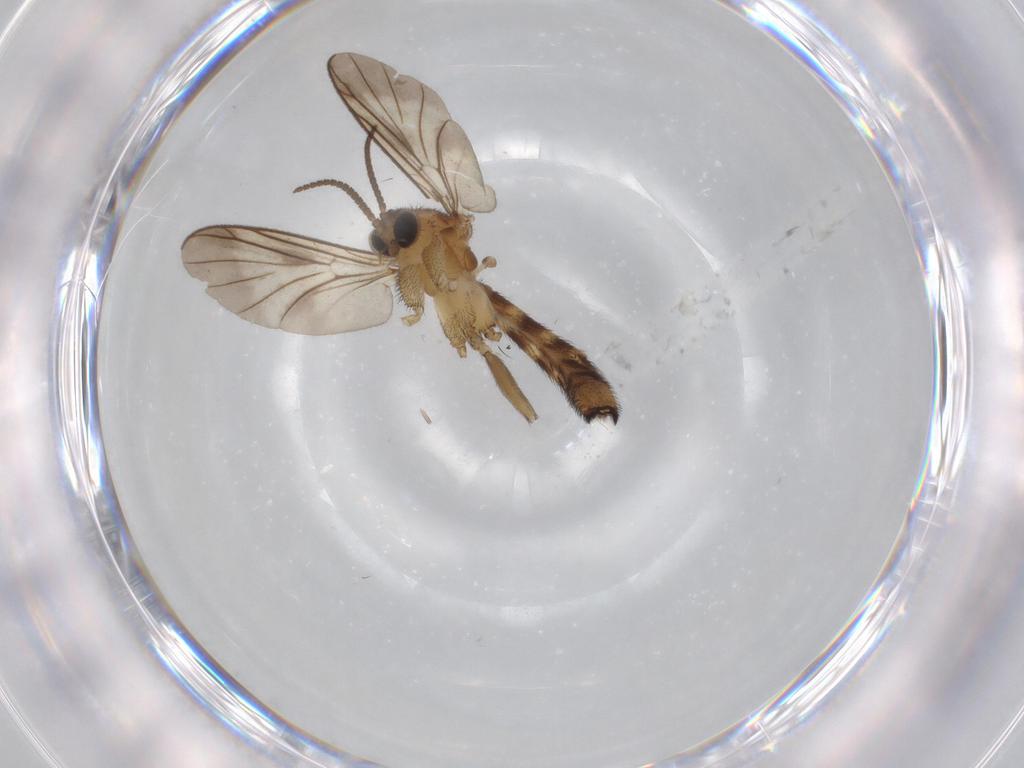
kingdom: Animalia
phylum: Arthropoda
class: Insecta
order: Diptera
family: Keroplatidae
